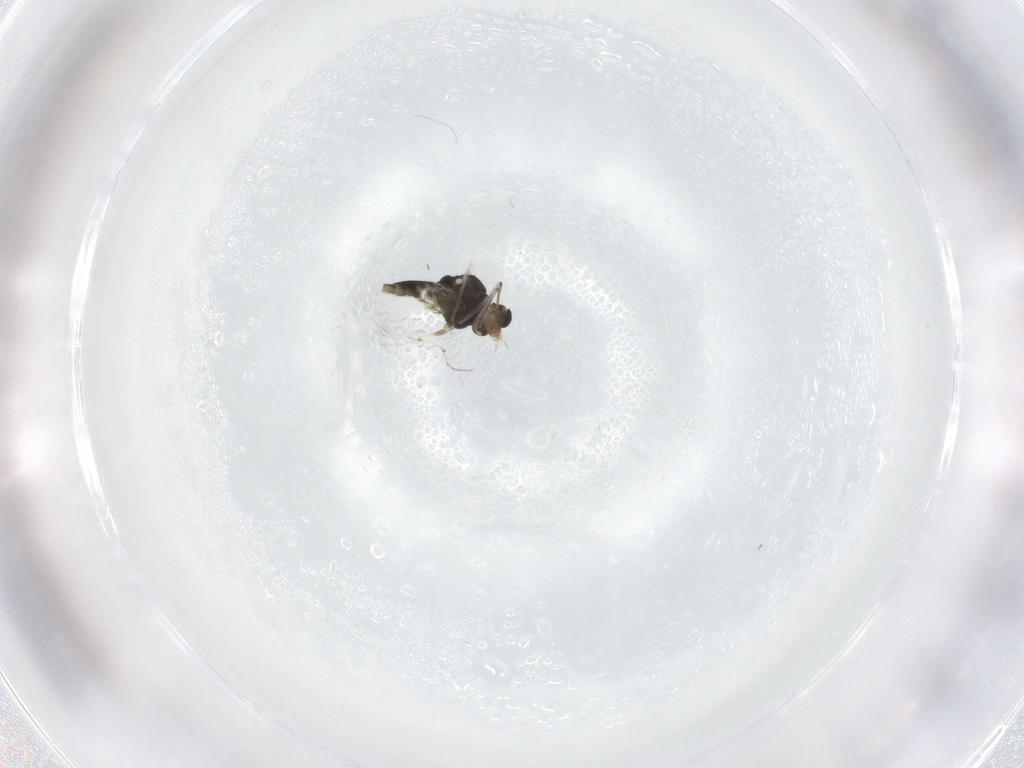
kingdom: Animalia
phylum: Arthropoda
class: Insecta
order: Diptera
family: Chironomidae
